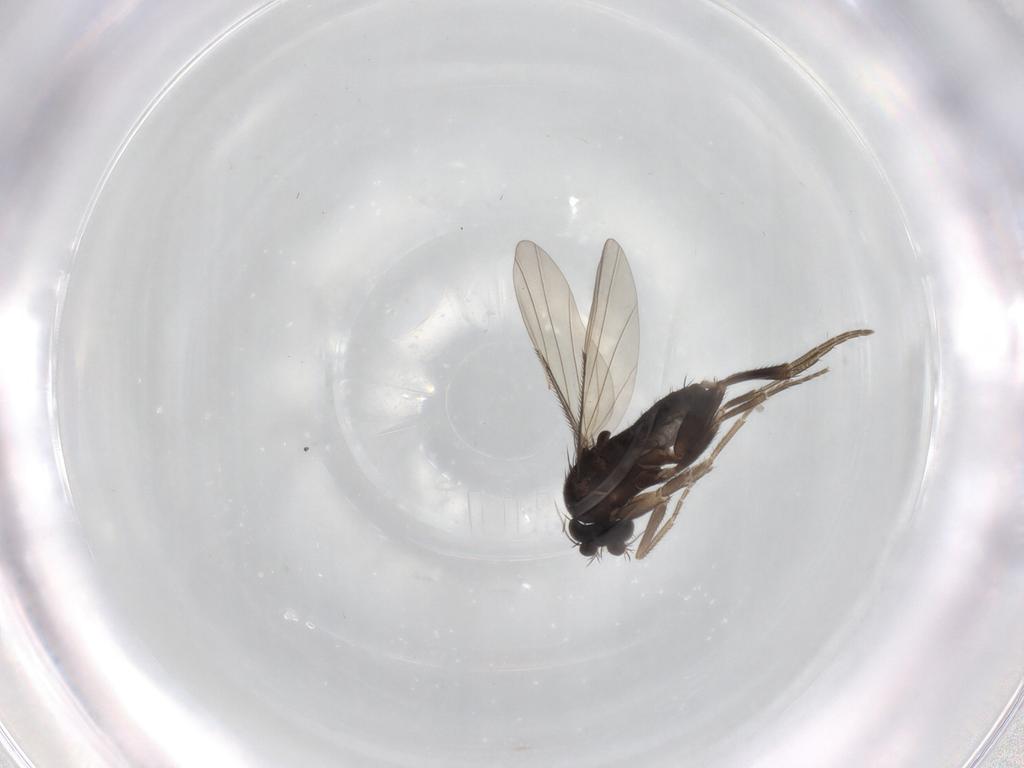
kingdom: Animalia
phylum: Arthropoda
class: Insecta
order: Diptera
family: Phoridae
